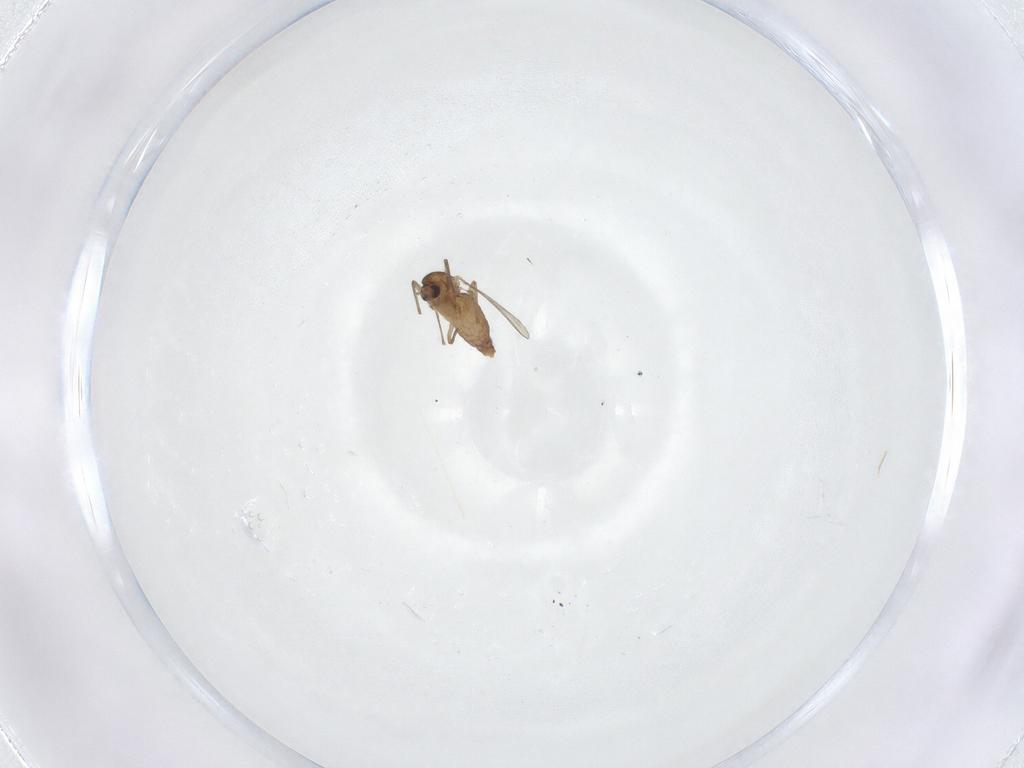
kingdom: Animalia
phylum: Arthropoda
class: Insecta
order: Diptera
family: Chironomidae
